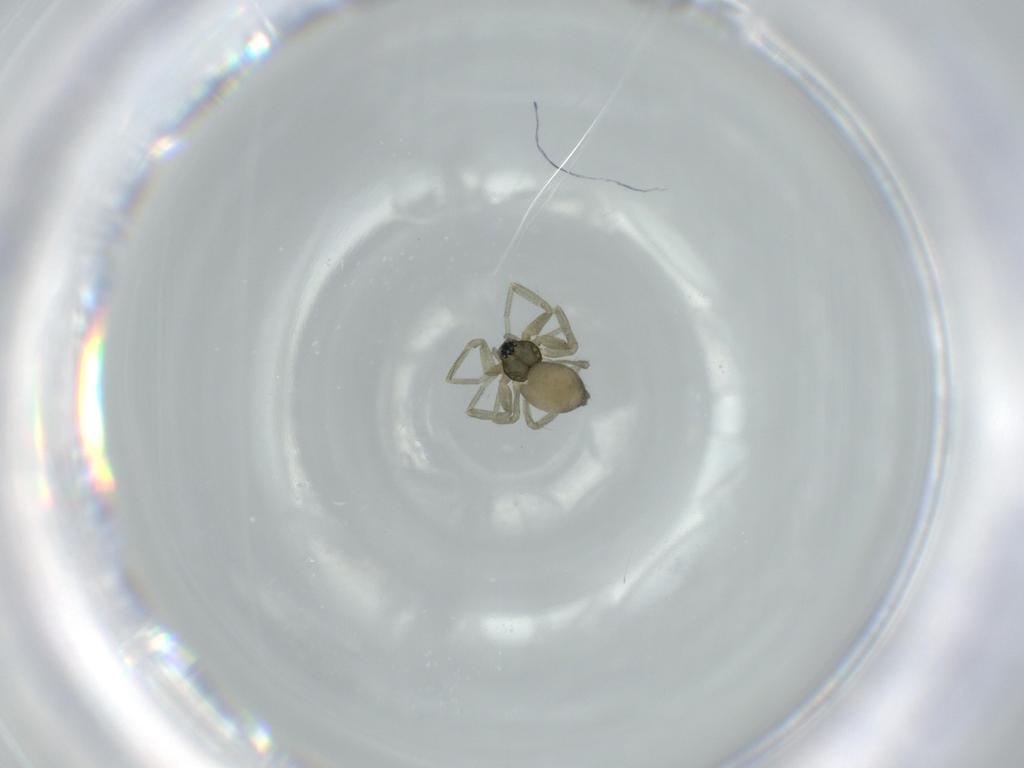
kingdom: Animalia
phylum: Arthropoda
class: Arachnida
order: Araneae
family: Linyphiidae
